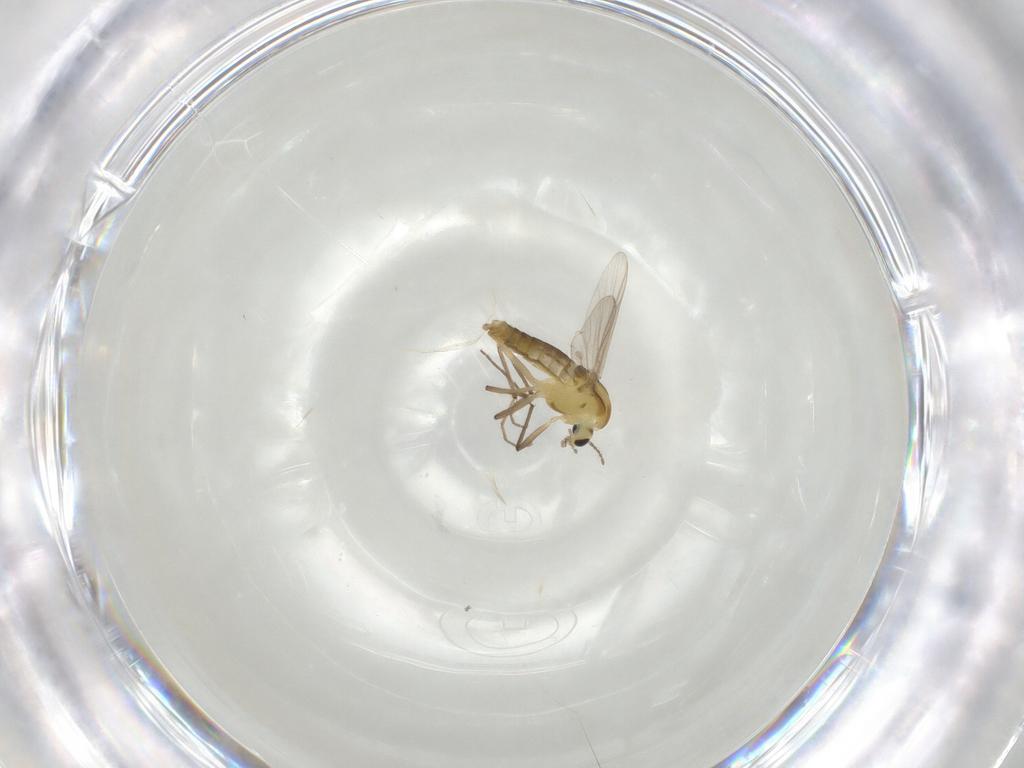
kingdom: Animalia
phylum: Arthropoda
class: Insecta
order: Diptera
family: Chironomidae
